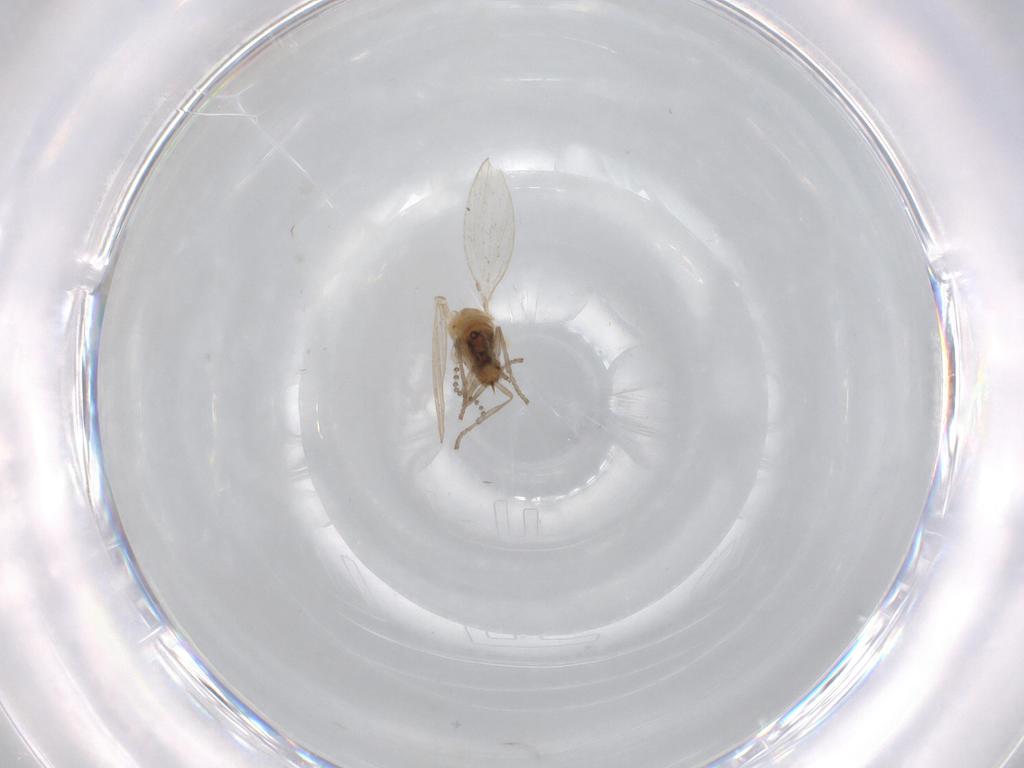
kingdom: Animalia
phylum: Arthropoda
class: Insecta
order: Diptera
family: Psychodidae
